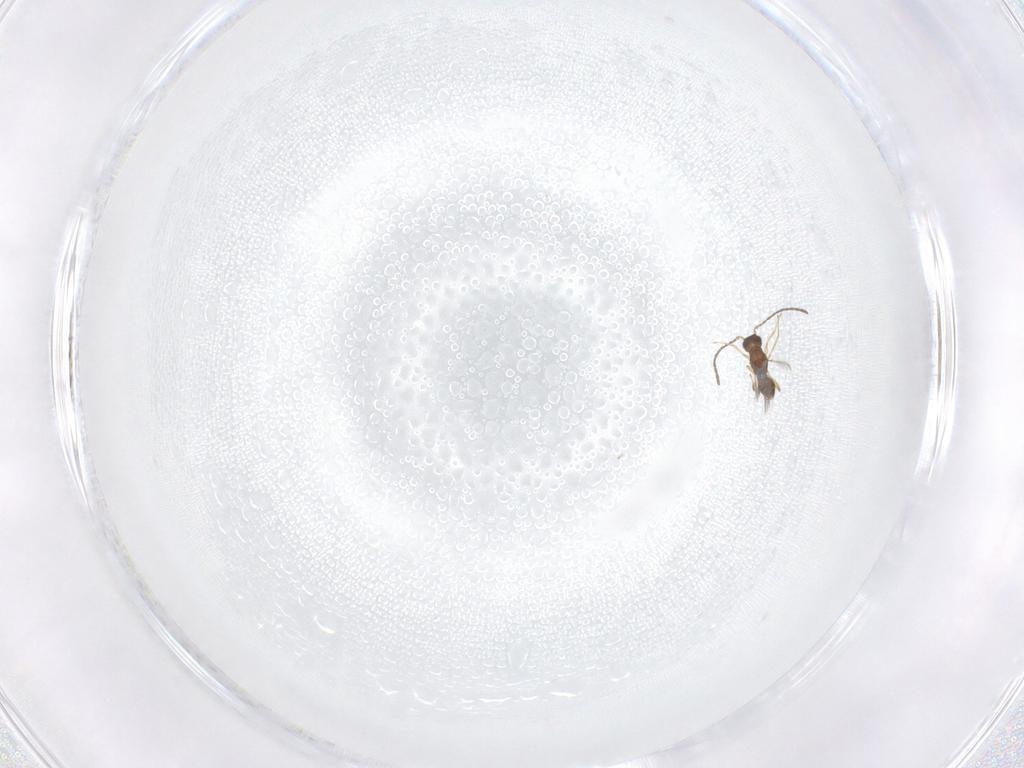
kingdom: Animalia
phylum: Arthropoda
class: Insecta
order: Hymenoptera
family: Mymaridae
